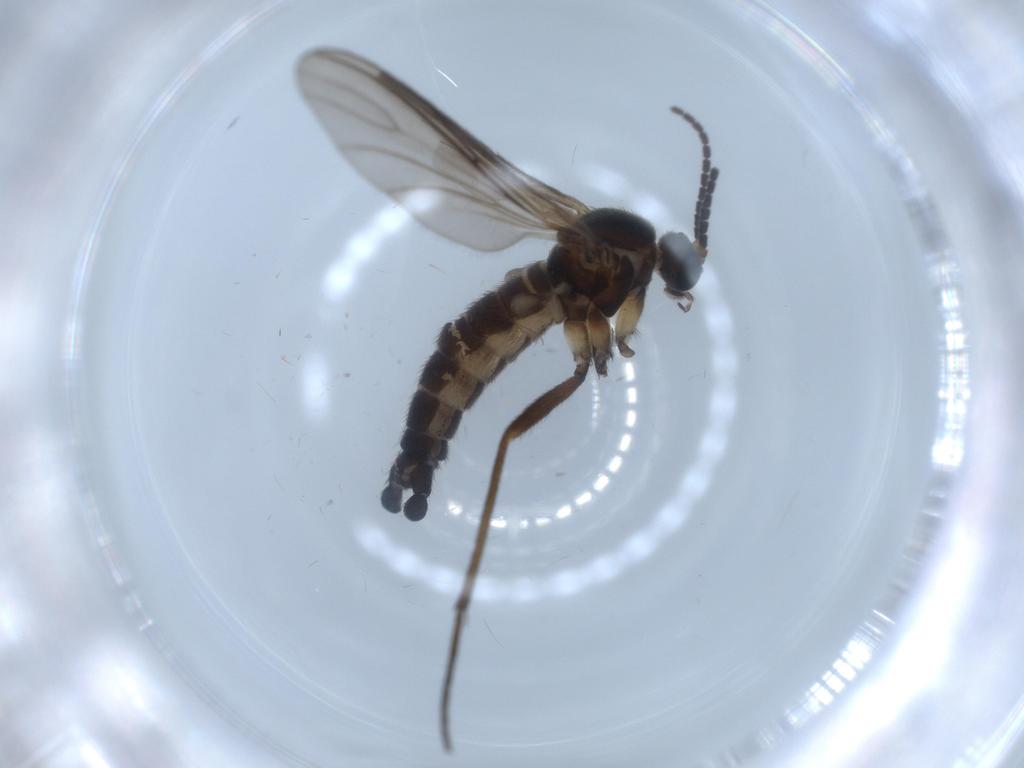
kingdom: Animalia
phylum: Arthropoda
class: Insecta
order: Diptera
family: Sciaridae
